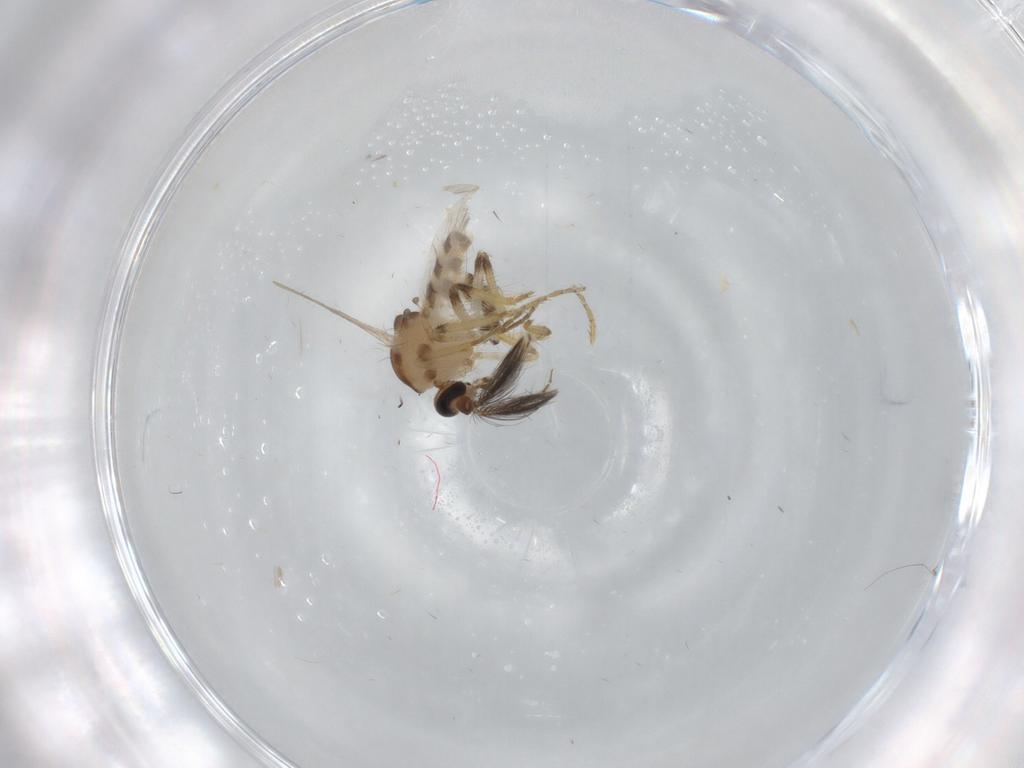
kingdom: Animalia
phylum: Arthropoda
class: Insecta
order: Diptera
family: Ceratopogonidae
